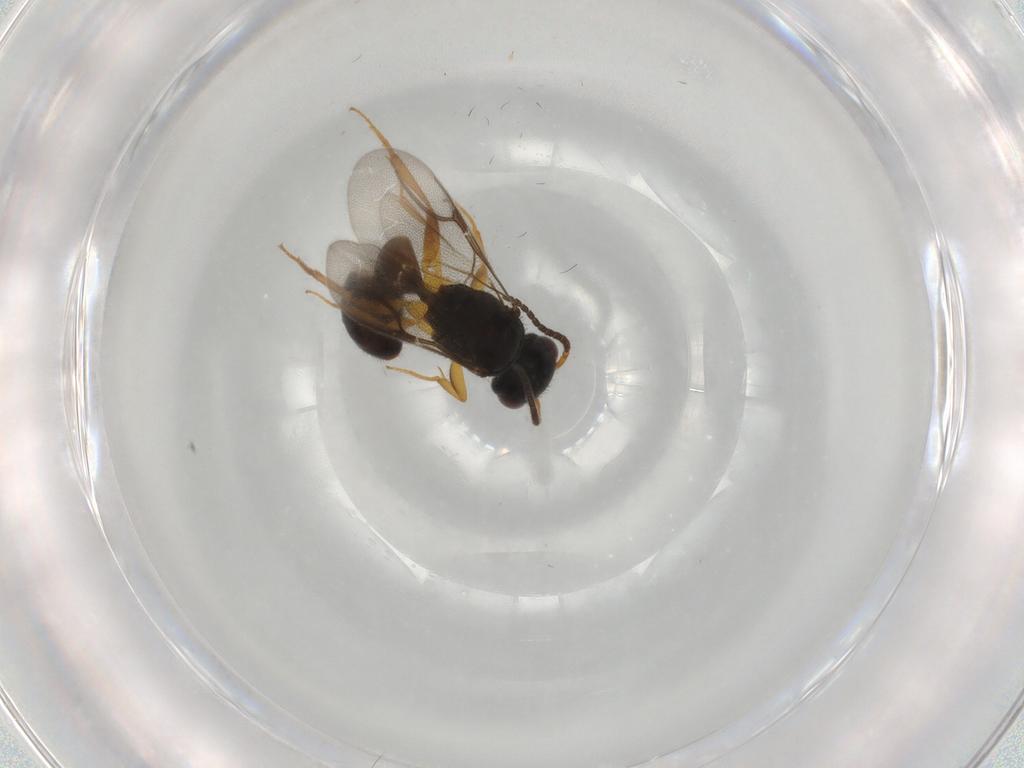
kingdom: Animalia
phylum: Arthropoda
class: Insecta
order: Hymenoptera
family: Bethylidae
